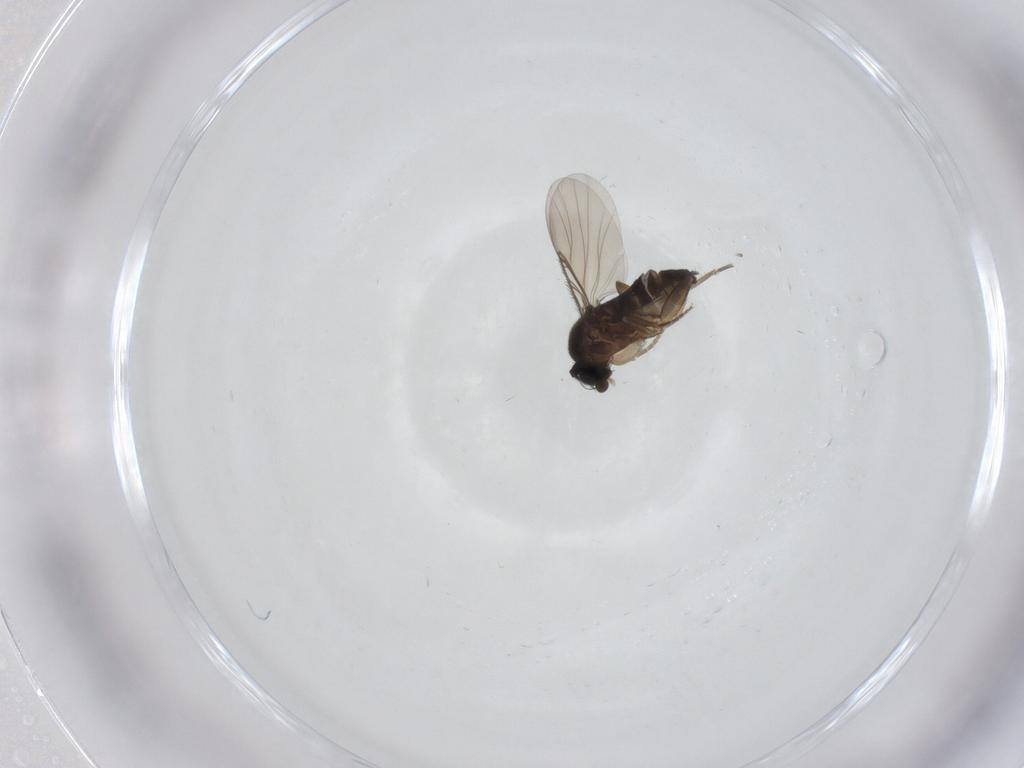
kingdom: Animalia
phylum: Arthropoda
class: Insecta
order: Diptera
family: Phoridae
